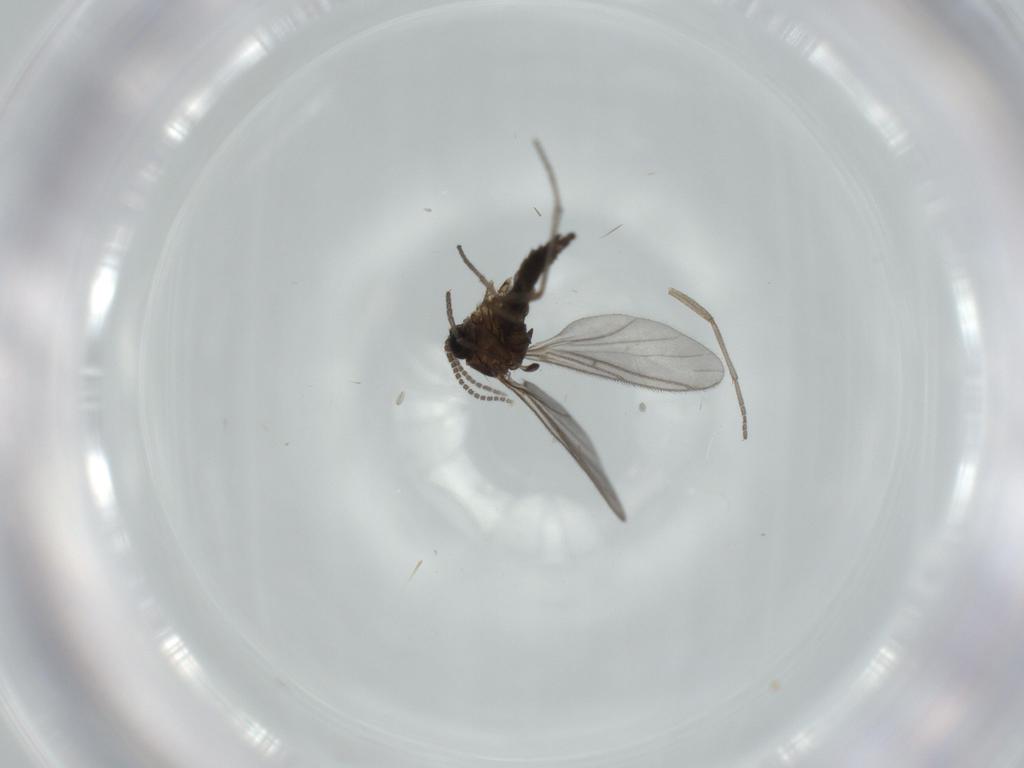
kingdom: Animalia
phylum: Arthropoda
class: Insecta
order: Diptera
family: Sciaridae
